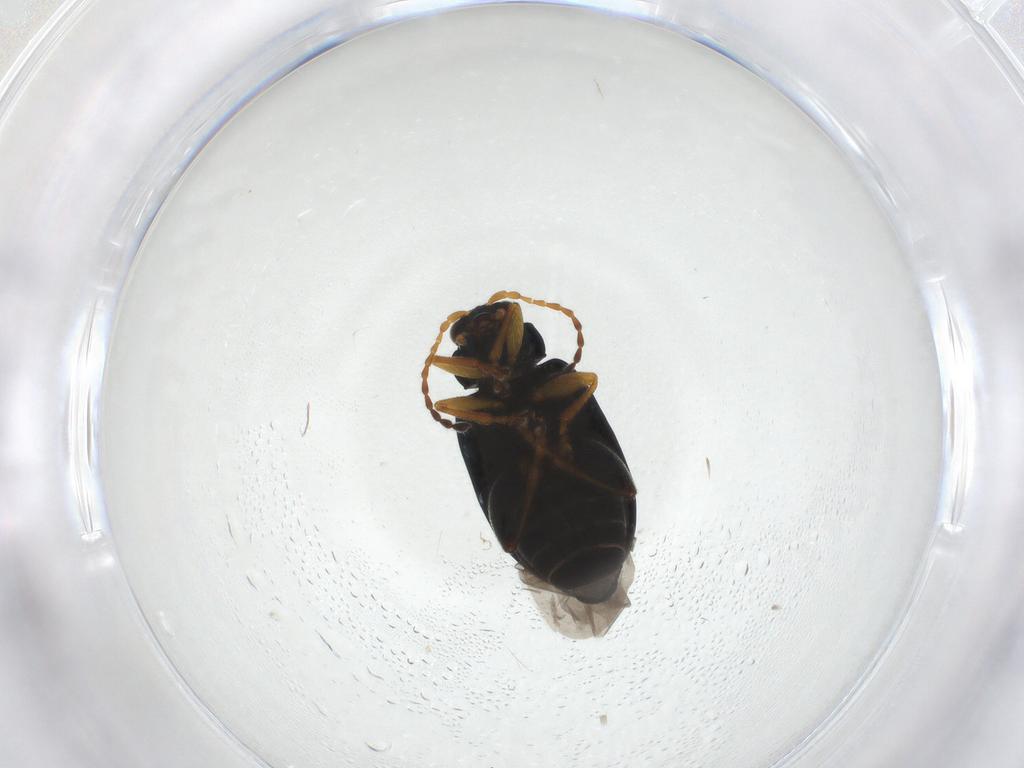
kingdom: Animalia
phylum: Arthropoda
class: Insecta
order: Coleoptera
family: Chrysomelidae
